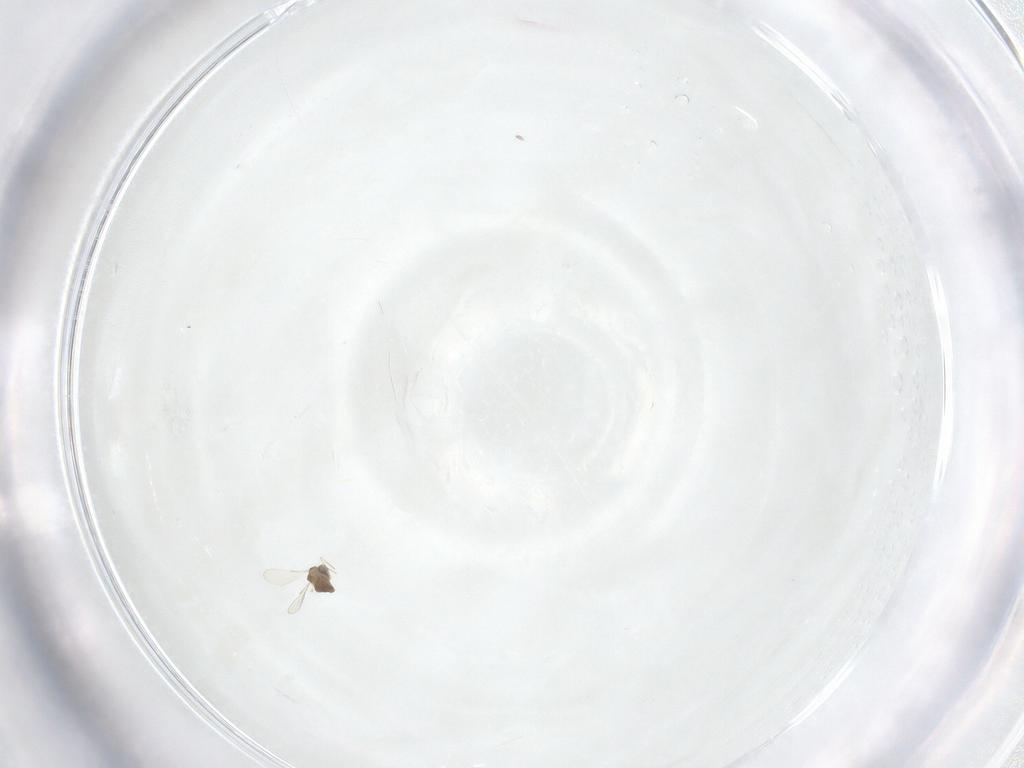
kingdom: Animalia
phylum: Arthropoda
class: Insecta
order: Diptera
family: Chironomidae
